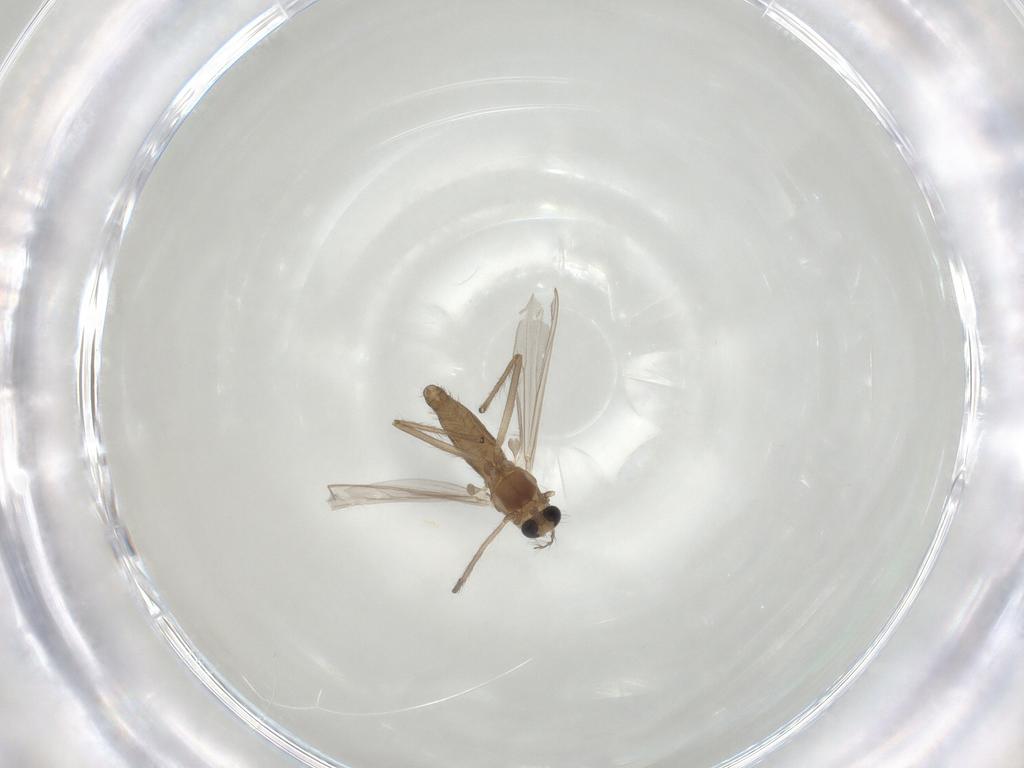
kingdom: Animalia
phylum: Arthropoda
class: Insecta
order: Diptera
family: Chironomidae
